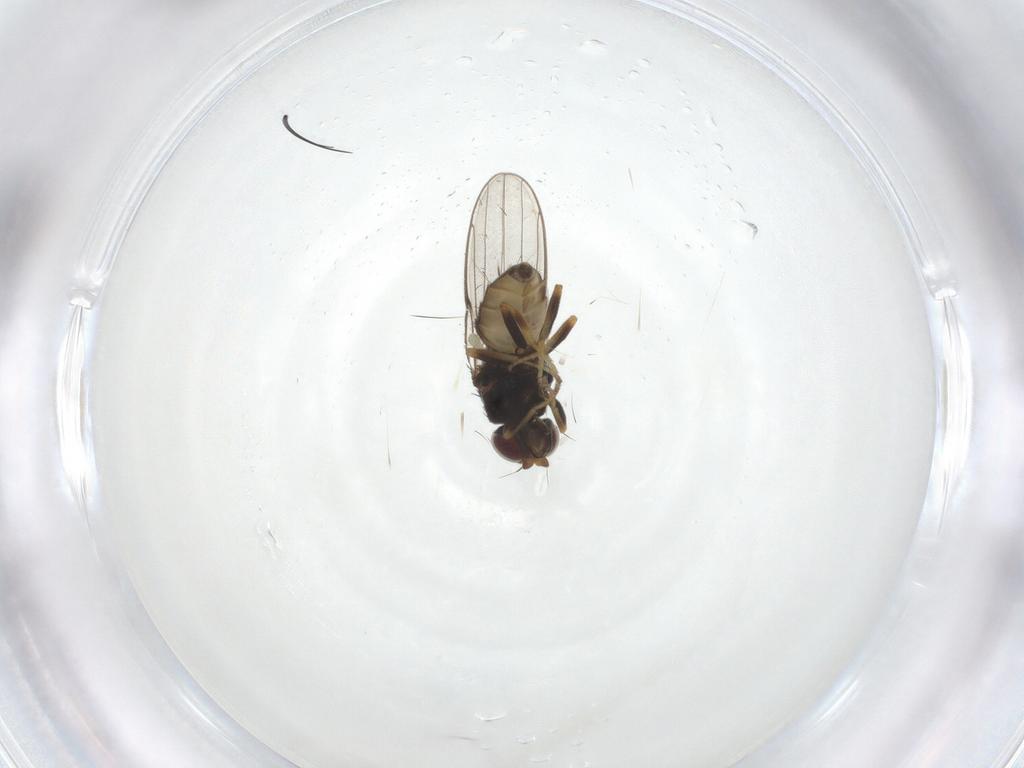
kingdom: Animalia
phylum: Arthropoda
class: Insecta
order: Diptera
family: Chloropidae
